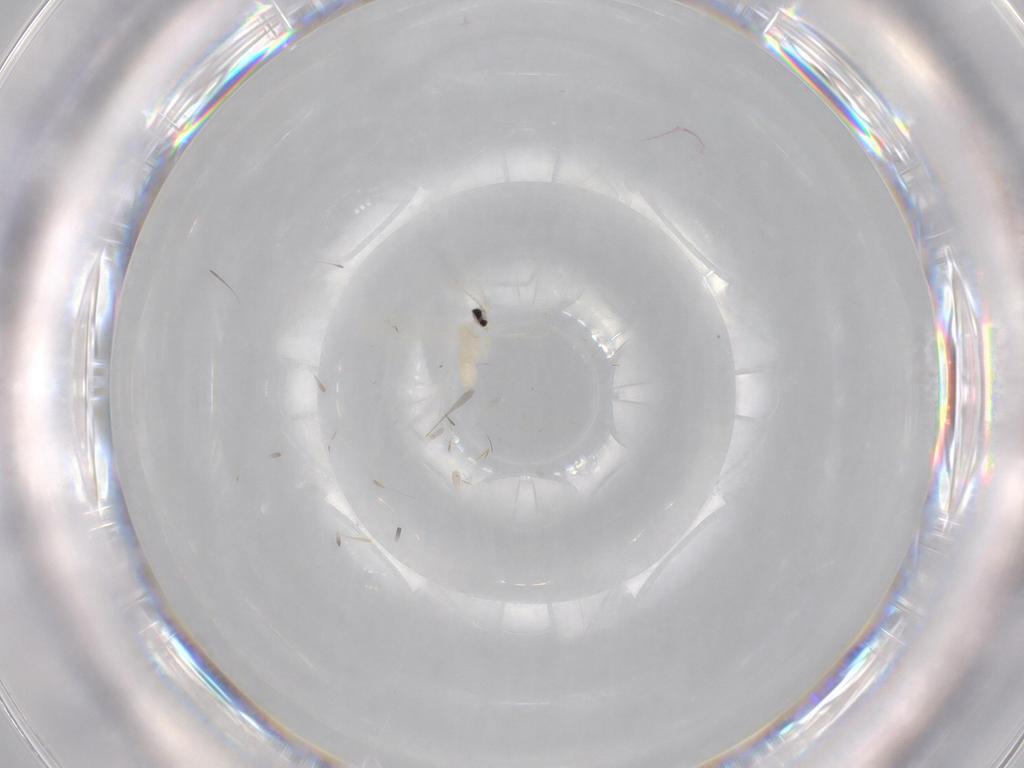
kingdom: Animalia
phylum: Arthropoda
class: Insecta
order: Diptera
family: Cecidomyiidae
